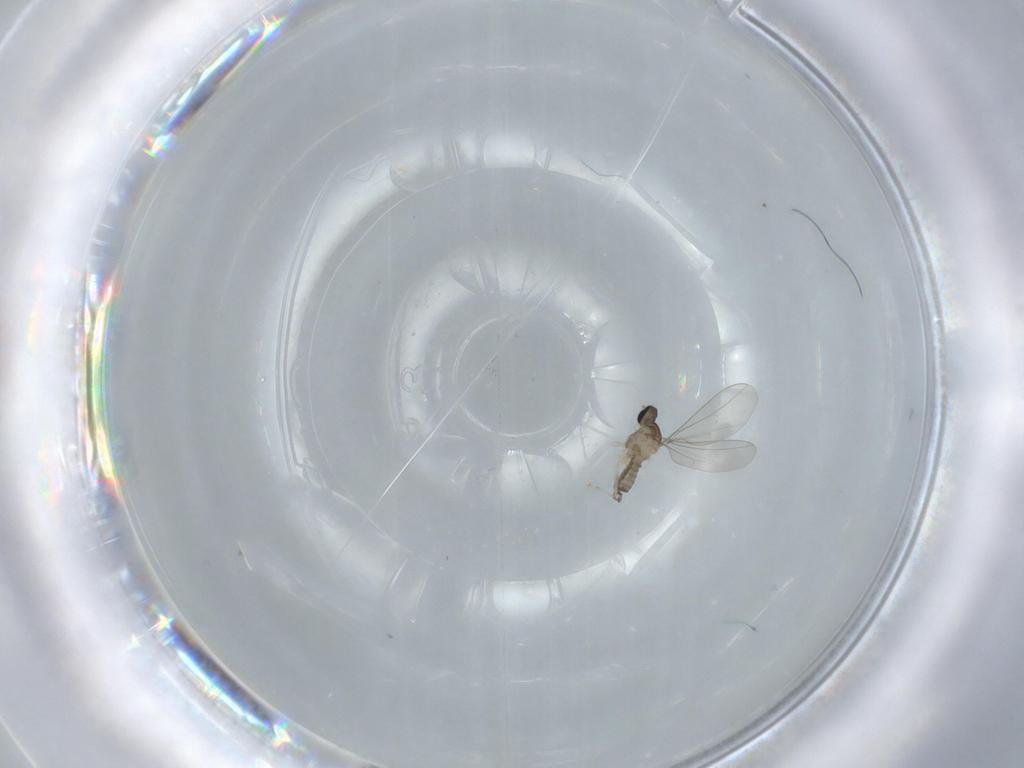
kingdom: Animalia
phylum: Arthropoda
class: Insecta
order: Diptera
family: Cecidomyiidae
